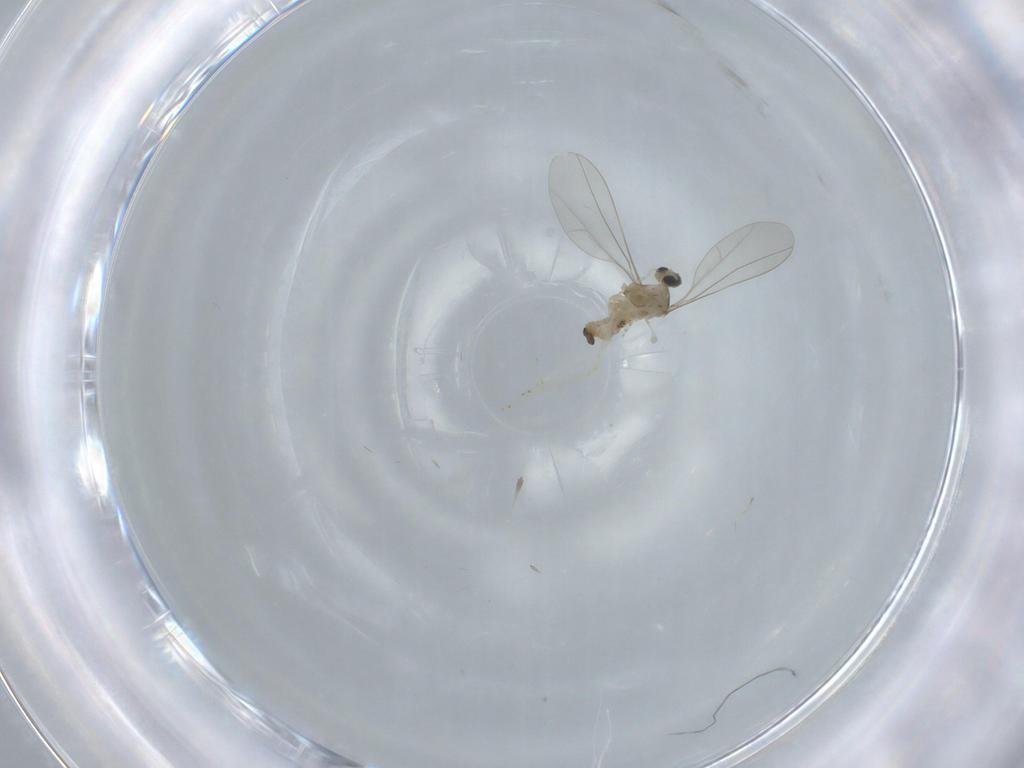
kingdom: Animalia
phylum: Arthropoda
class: Insecta
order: Diptera
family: Cecidomyiidae
